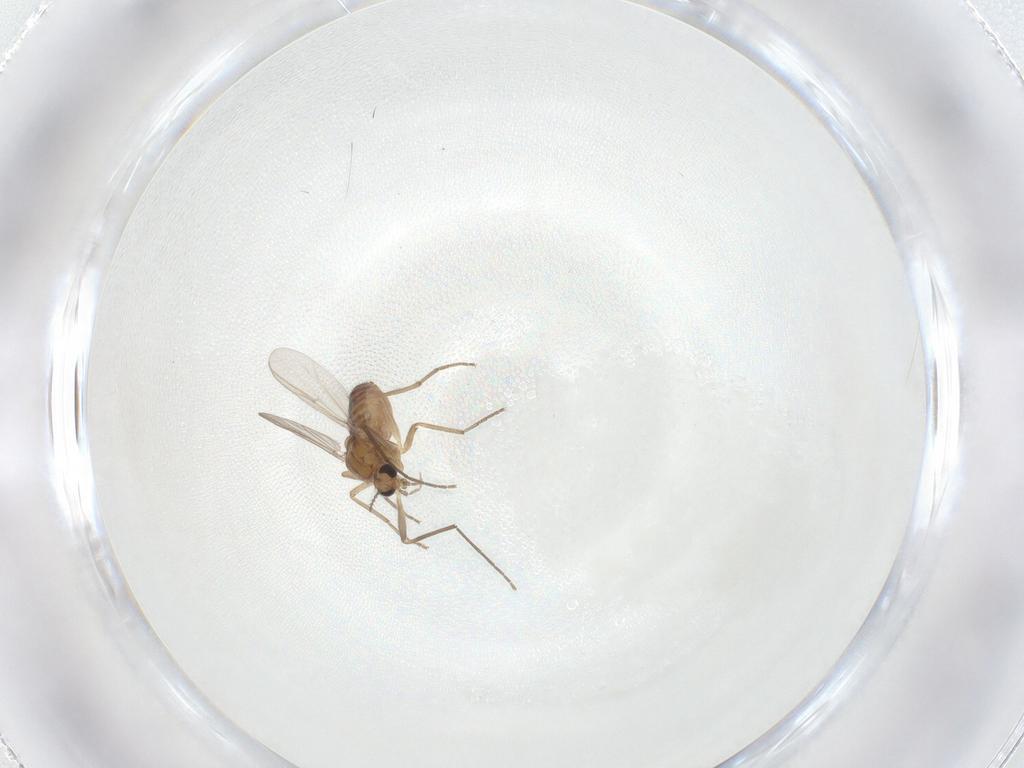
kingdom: Animalia
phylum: Arthropoda
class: Insecta
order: Diptera
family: Chironomidae
